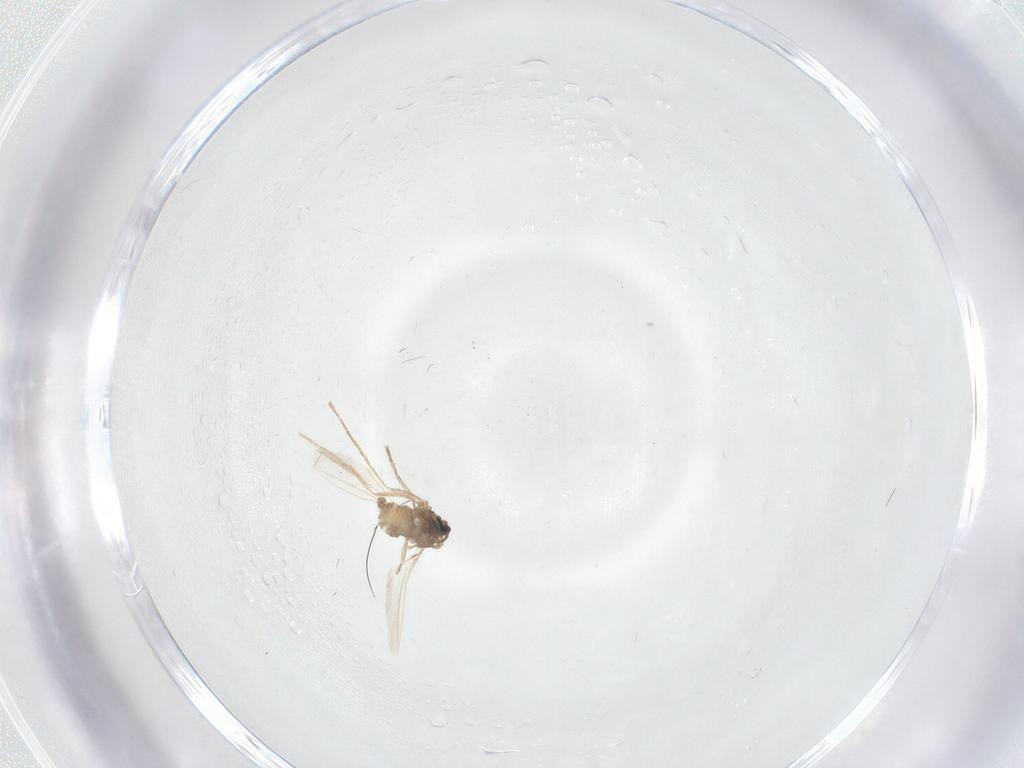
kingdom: Animalia
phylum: Arthropoda
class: Insecta
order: Diptera
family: Cecidomyiidae
